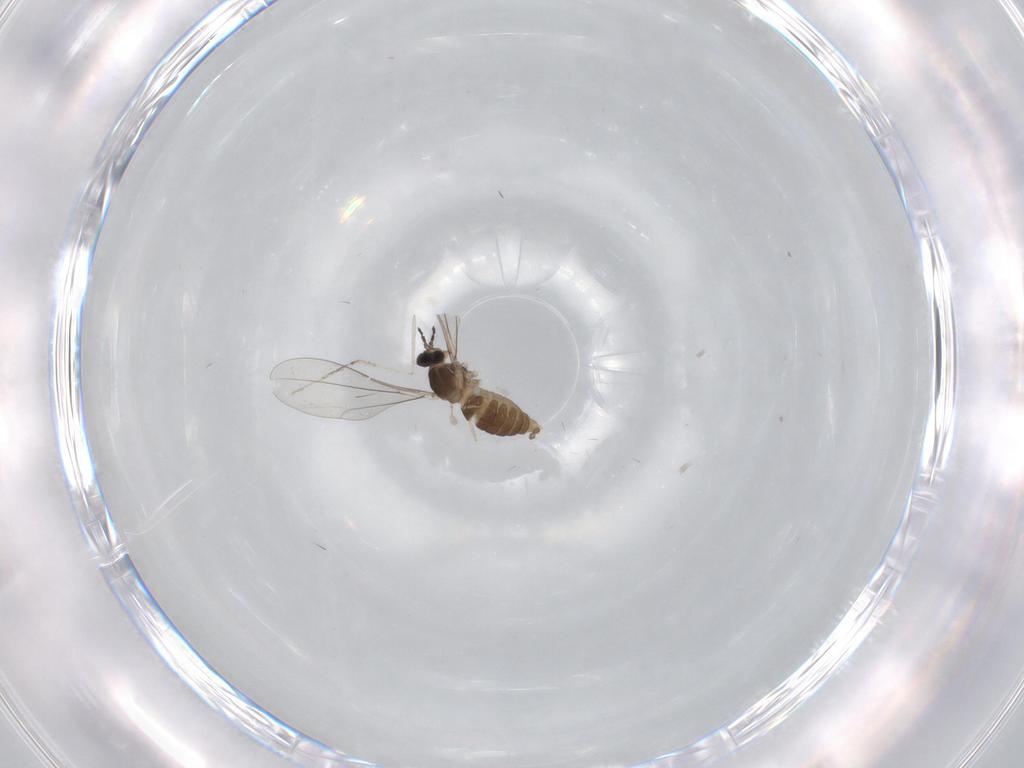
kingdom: Animalia
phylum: Arthropoda
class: Insecta
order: Diptera
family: Cecidomyiidae
